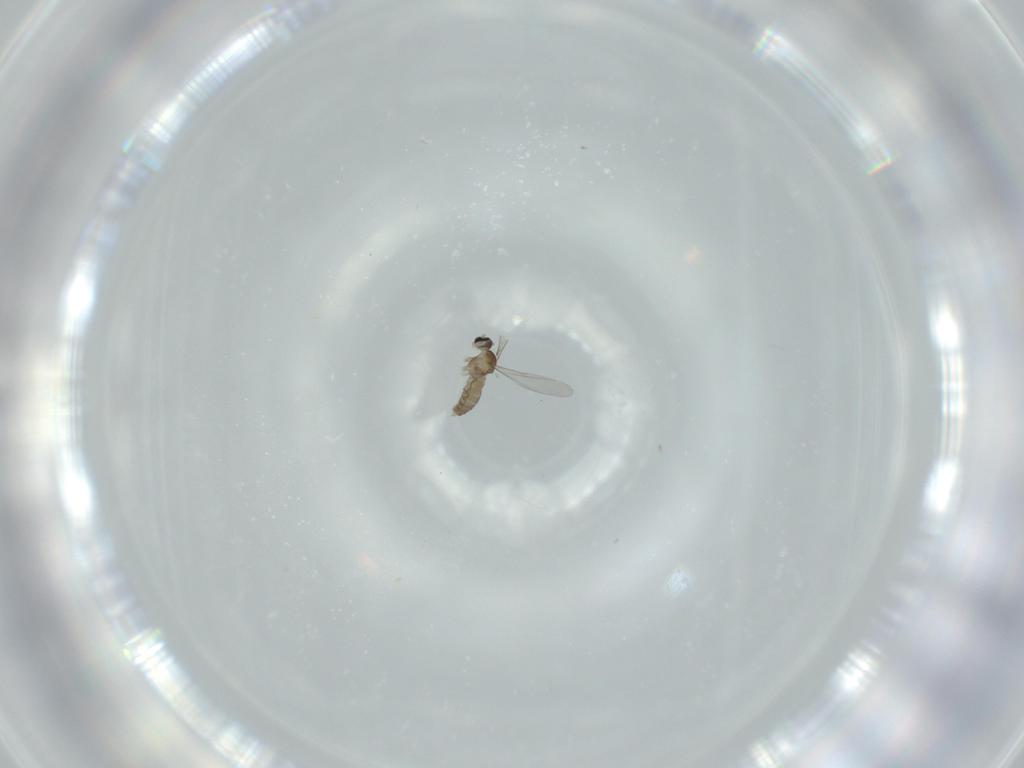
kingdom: Animalia
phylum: Arthropoda
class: Insecta
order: Diptera
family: Cecidomyiidae
